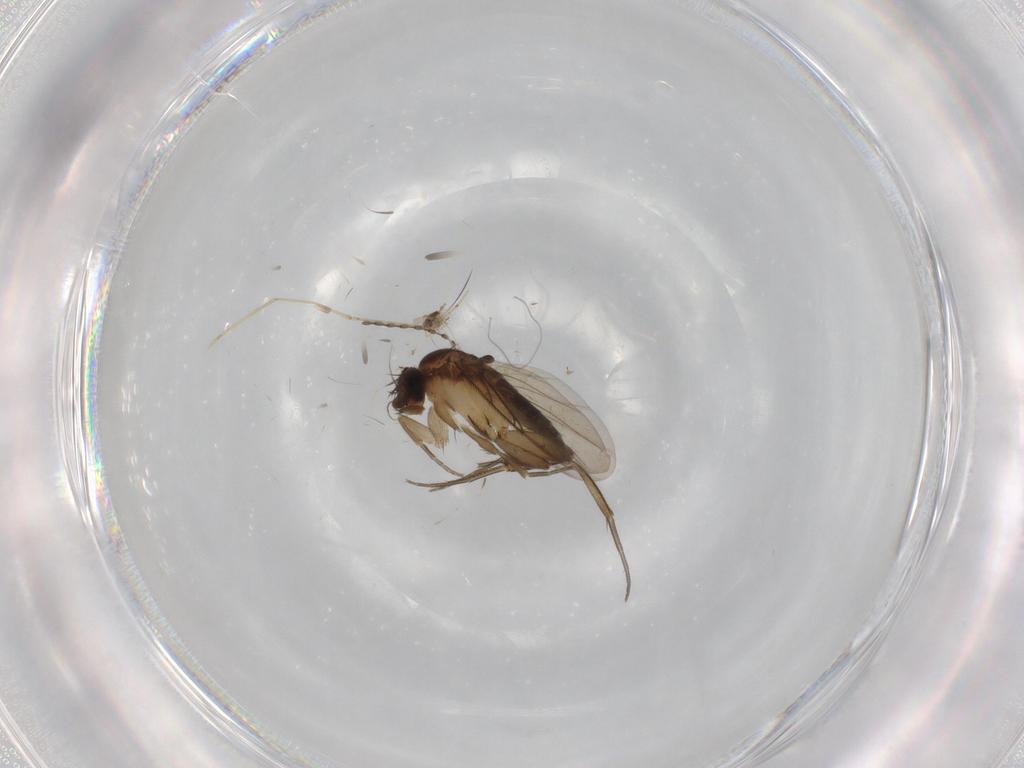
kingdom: Animalia
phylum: Arthropoda
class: Insecta
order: Diptera
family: Phoridae
